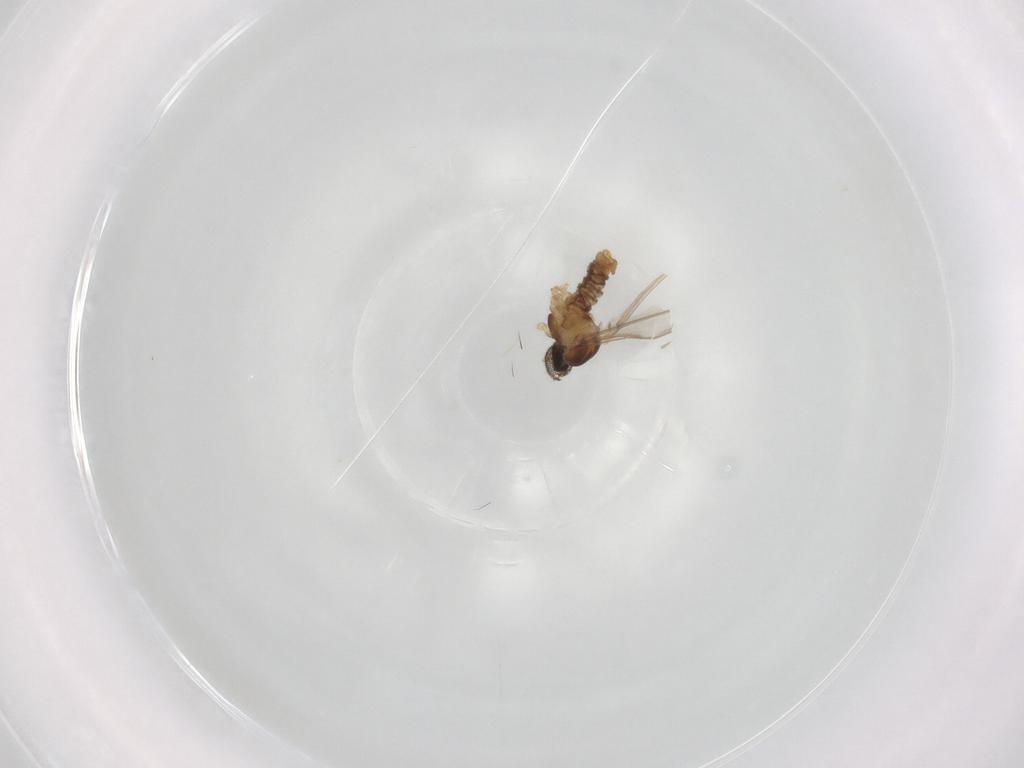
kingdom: Animalia
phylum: Arthropoda
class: Insecta
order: Diptera
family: Cecidomyiidae
